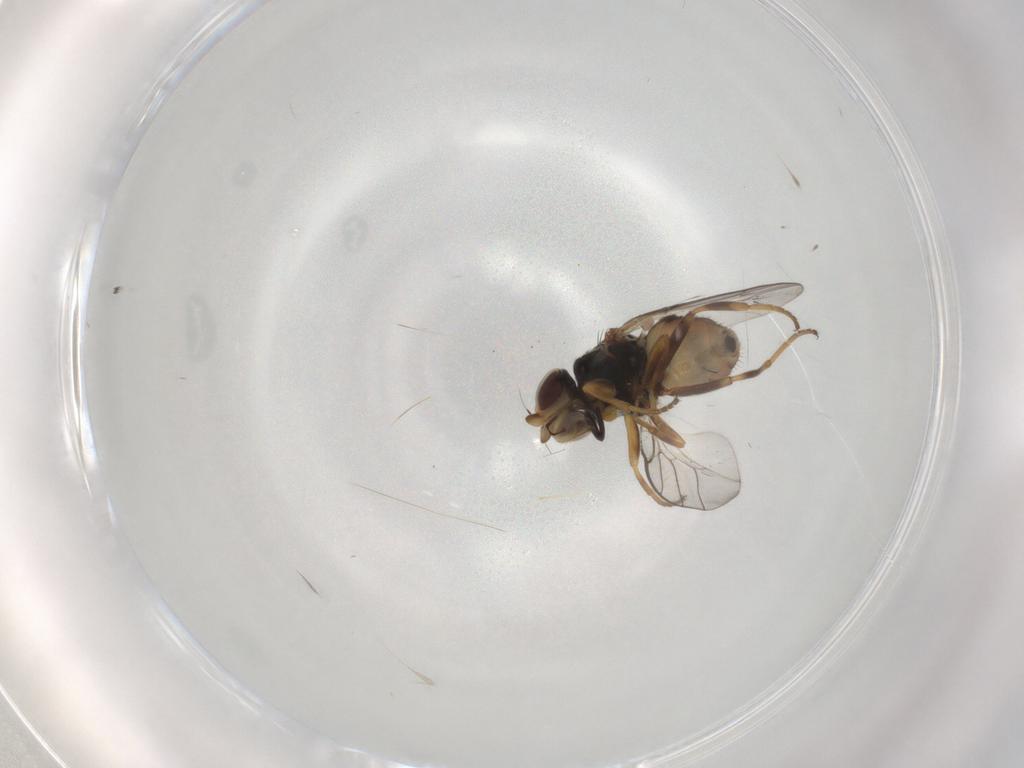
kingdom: Animalia
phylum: Arthropoda
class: Insecta
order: Diptera
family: Chloropidae
